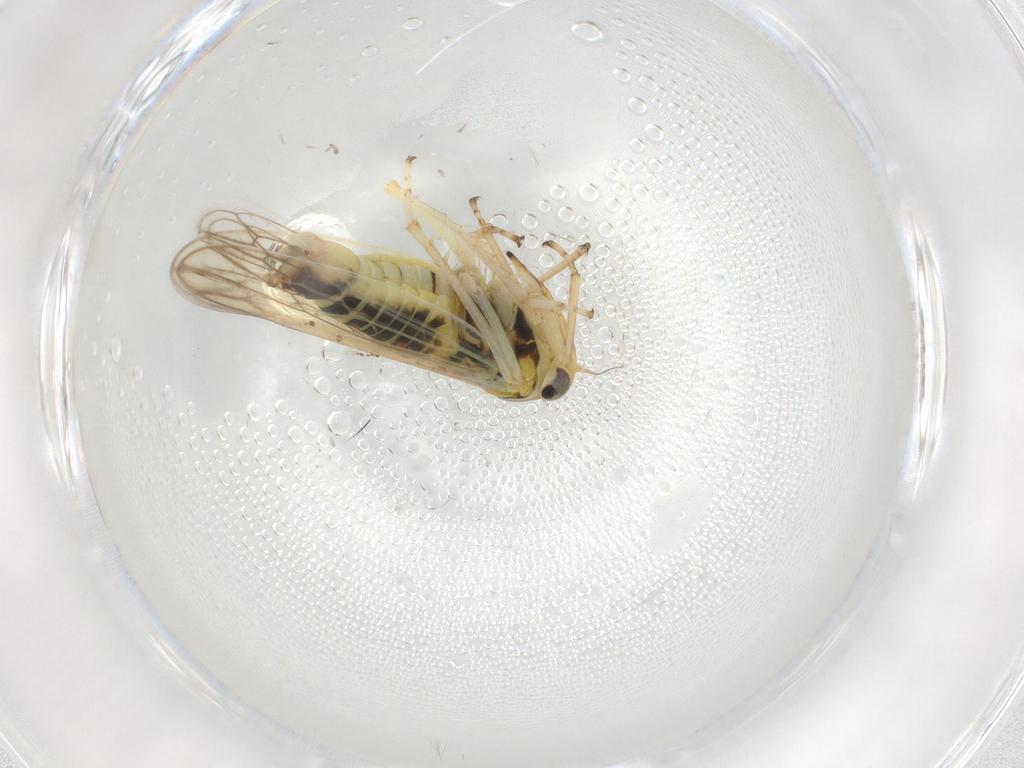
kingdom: Animalia
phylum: Arthropoda
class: Insecta
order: Hemiptera
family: Cicadellidae
